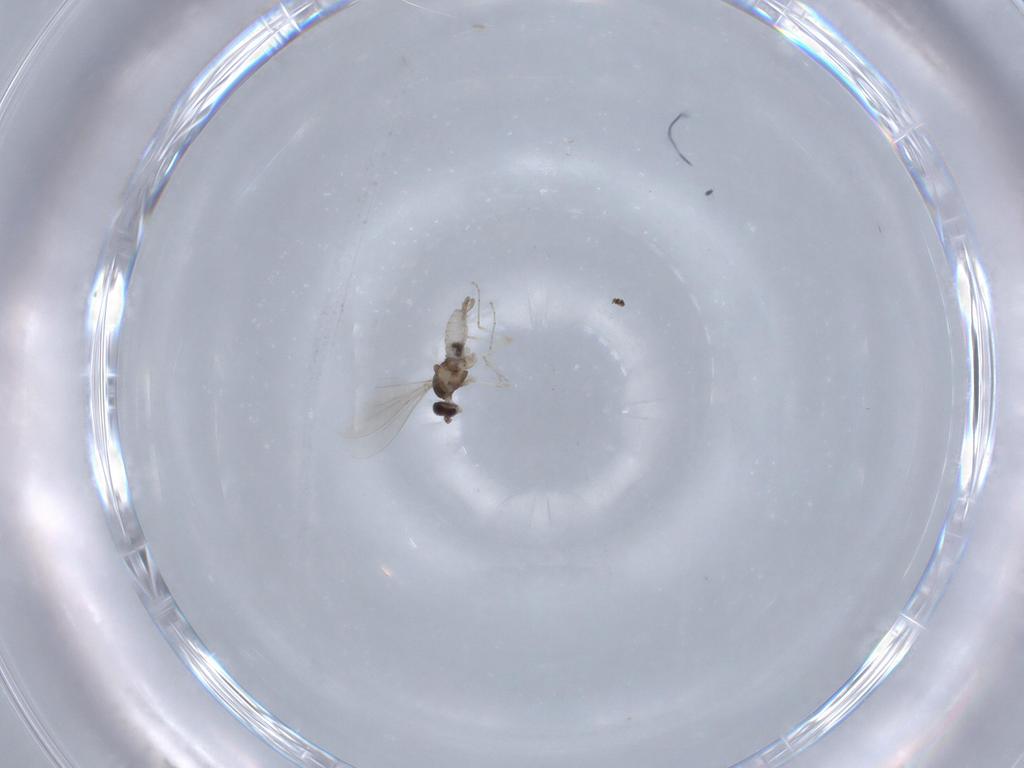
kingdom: Animalia
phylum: Arthropoda
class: Insecta
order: Diptera
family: Cecidomyiidae
